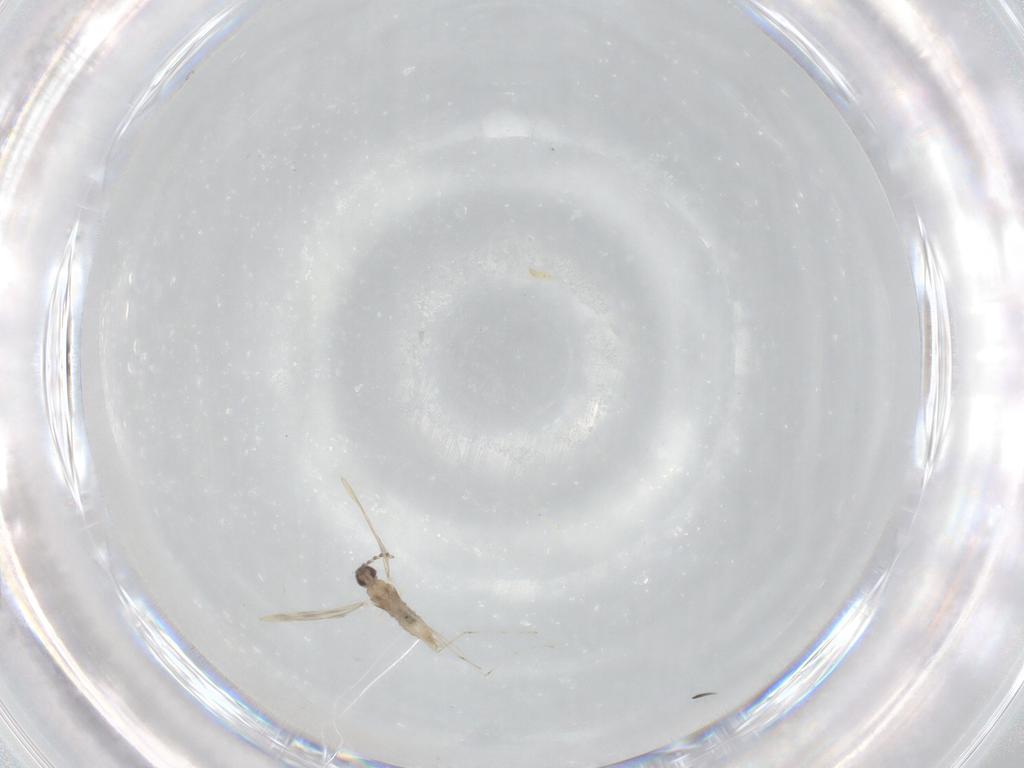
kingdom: Animalia
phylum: Arthropoda
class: Insecta
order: Diptera
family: Cecidomyiidae
